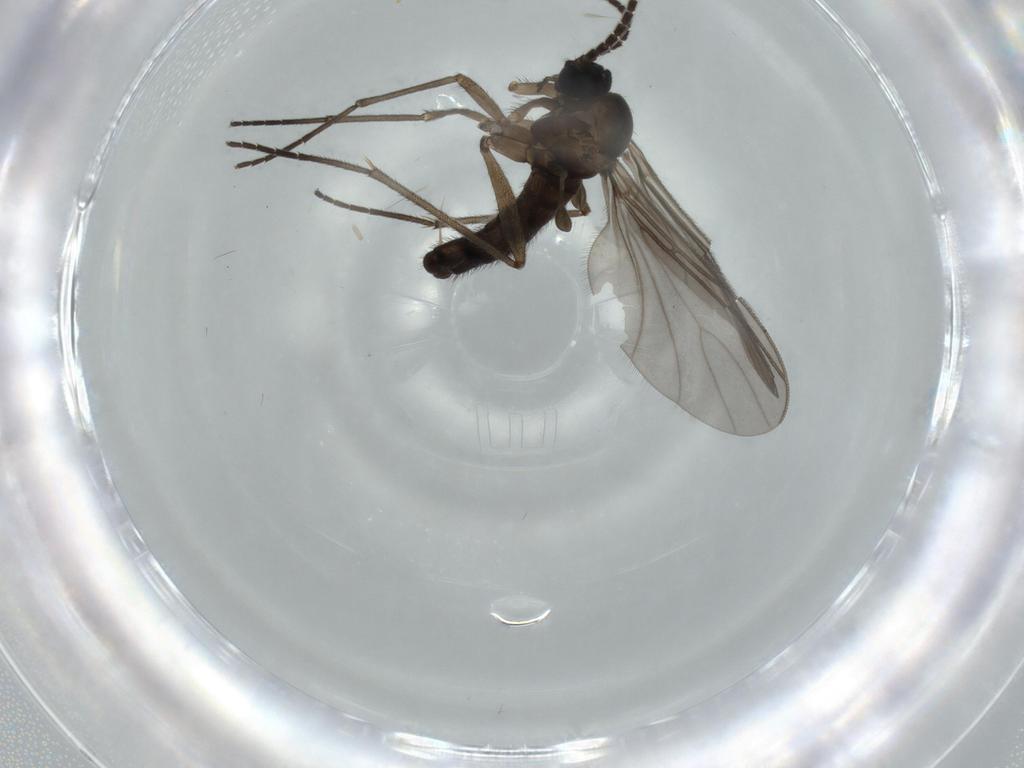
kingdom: Animalia
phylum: Arthropoda
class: Insecta
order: Diptera
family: Sciaridae
